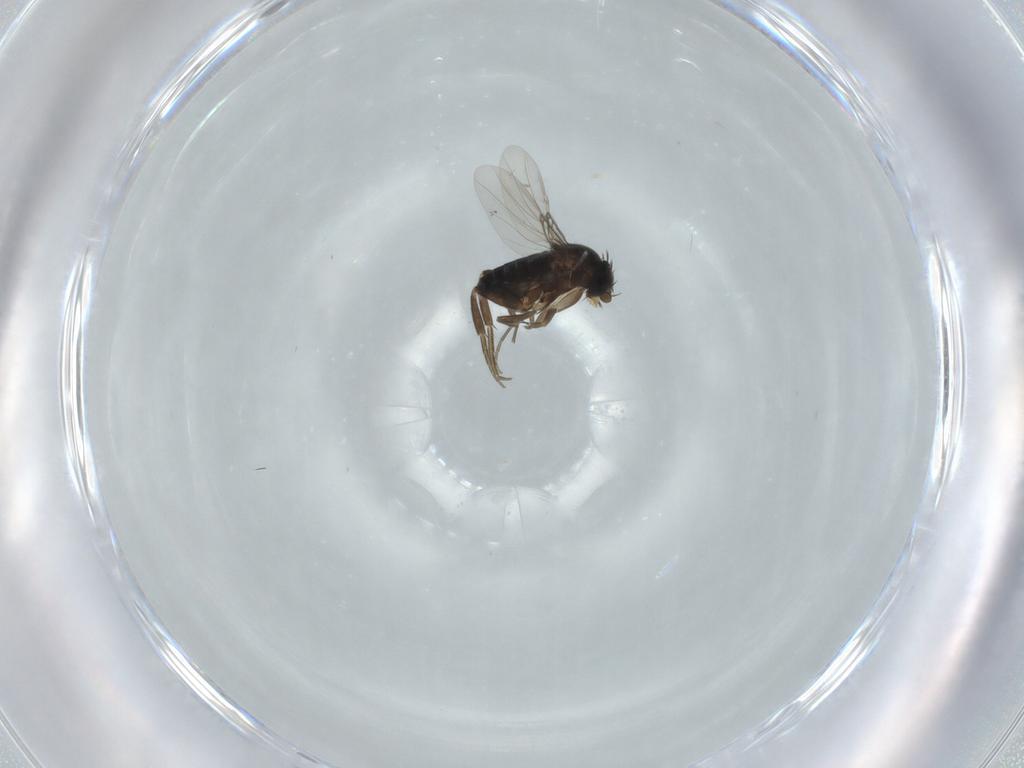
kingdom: Animalia
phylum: Arthropoda
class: Insecta
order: Diptera
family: Phoridae
